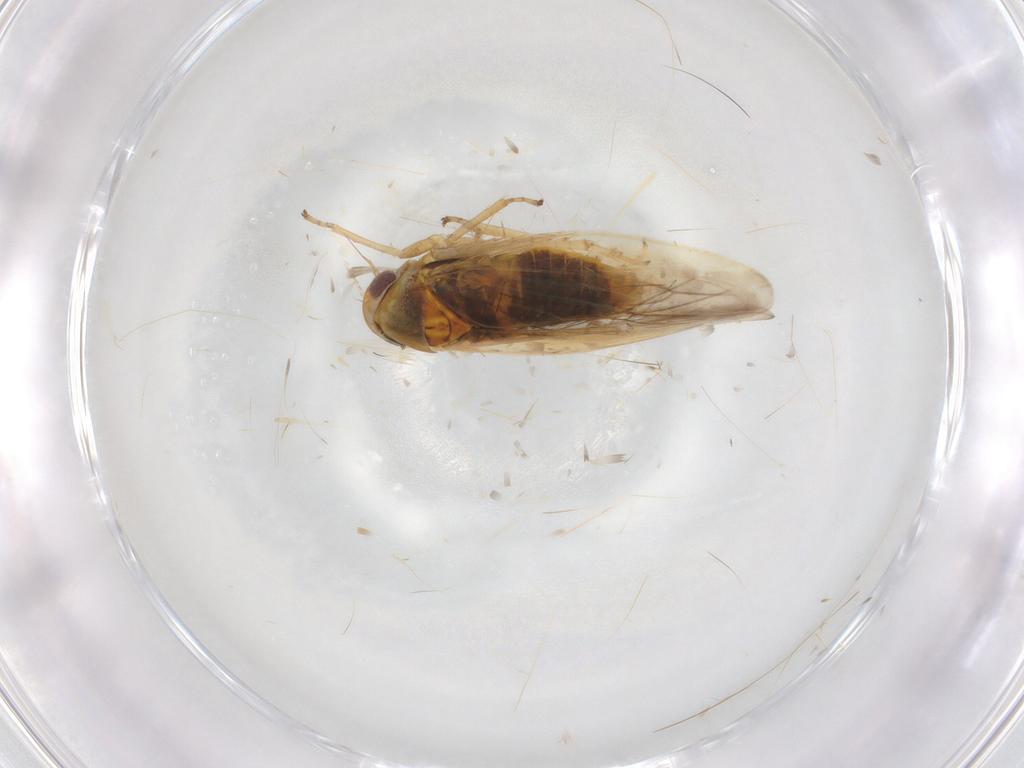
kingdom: Animalia
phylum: Arthropoda
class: Insecta
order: Hemiptera
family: Cicadellidae
